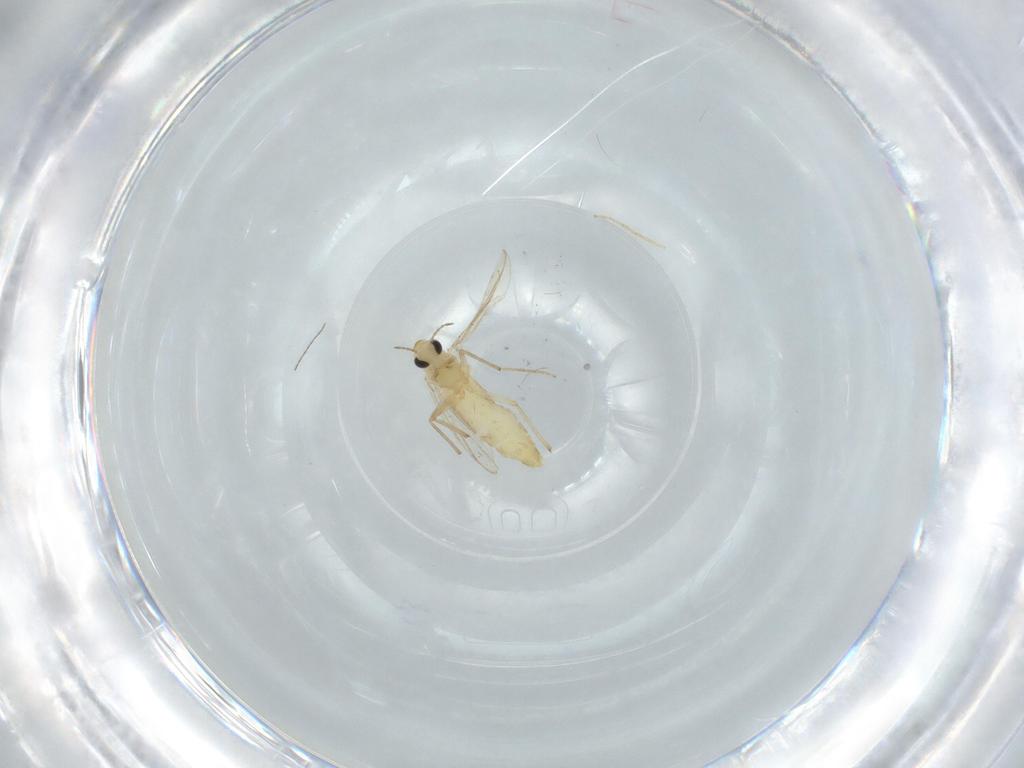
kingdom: Animalia
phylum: Arthropoda
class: Insecta
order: Diptera
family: Chironomidae
